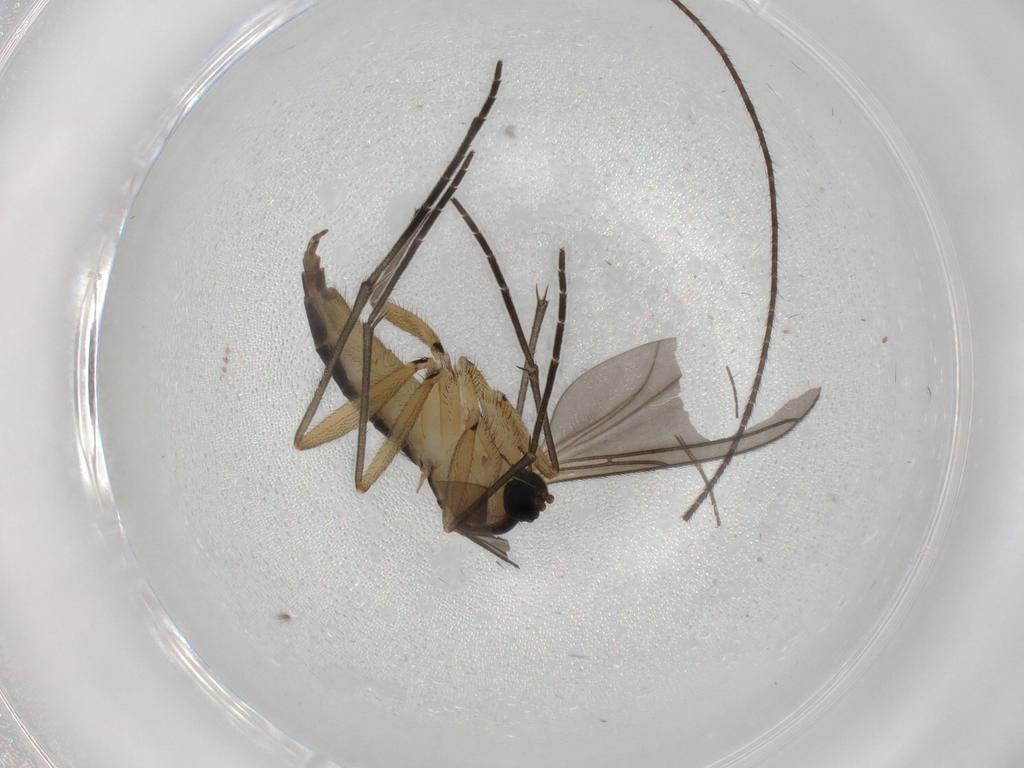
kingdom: Animalia
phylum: Arthropoda
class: Insecta
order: Diptera
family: Sciaridae
